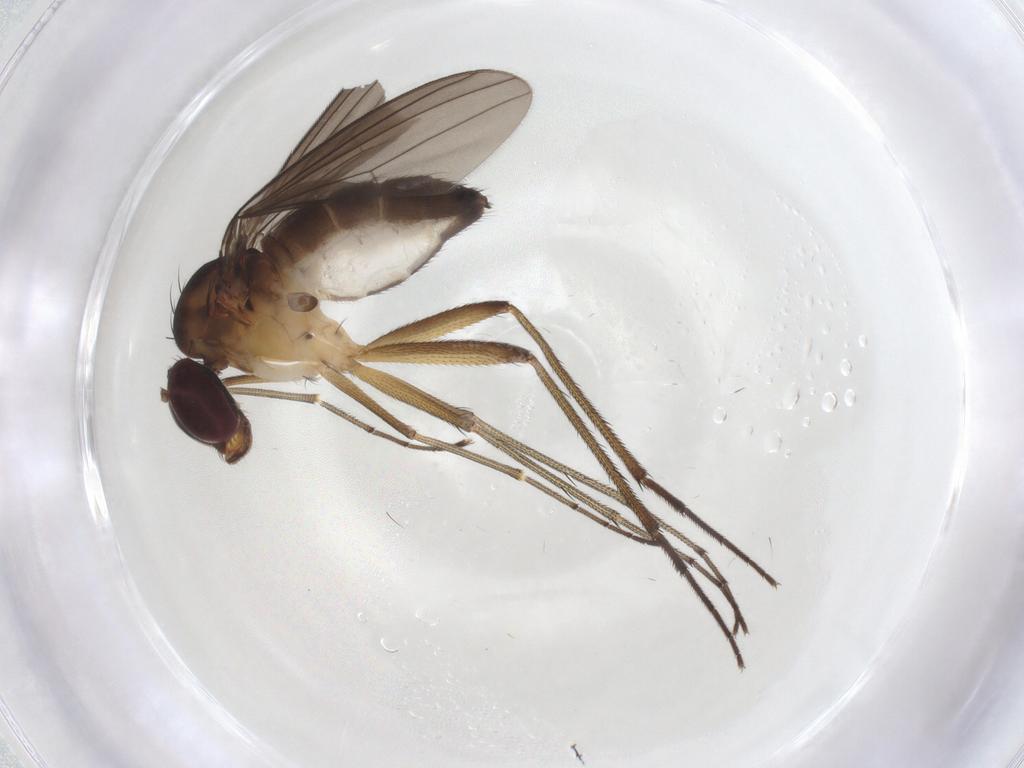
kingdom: Animalia
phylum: Arthropoda
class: Insecta
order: Diptera
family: Dolichopodidae
